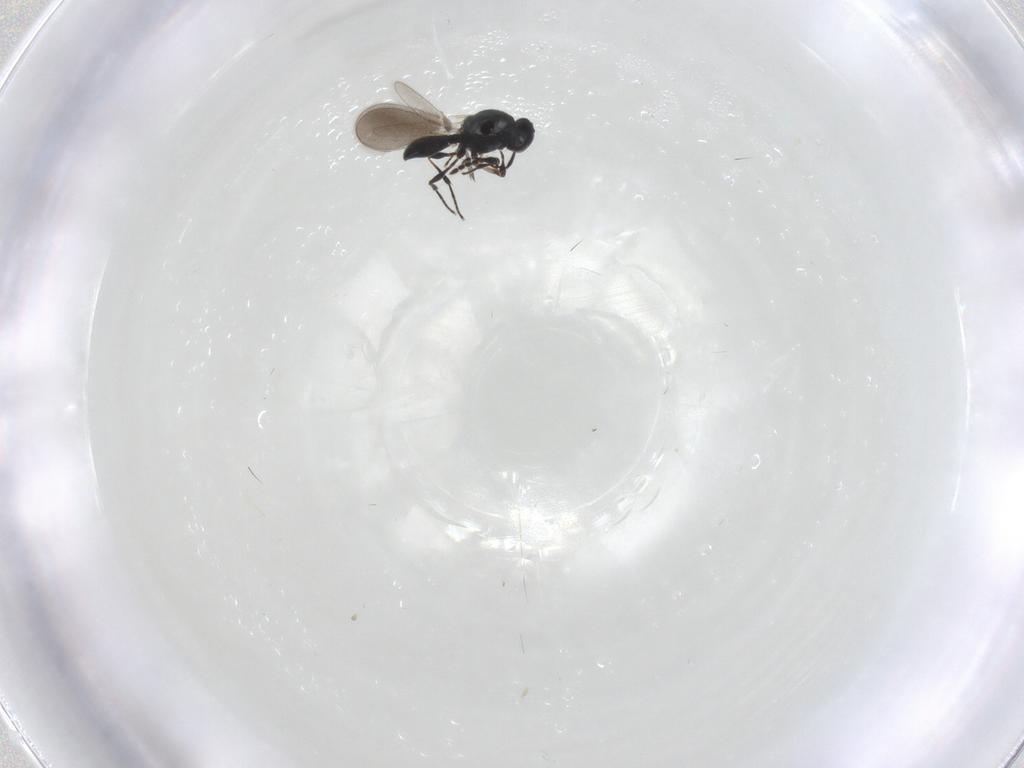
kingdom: Animalia
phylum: Arthropoda
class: Insecta
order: Hymenoptera
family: Platygastridae
